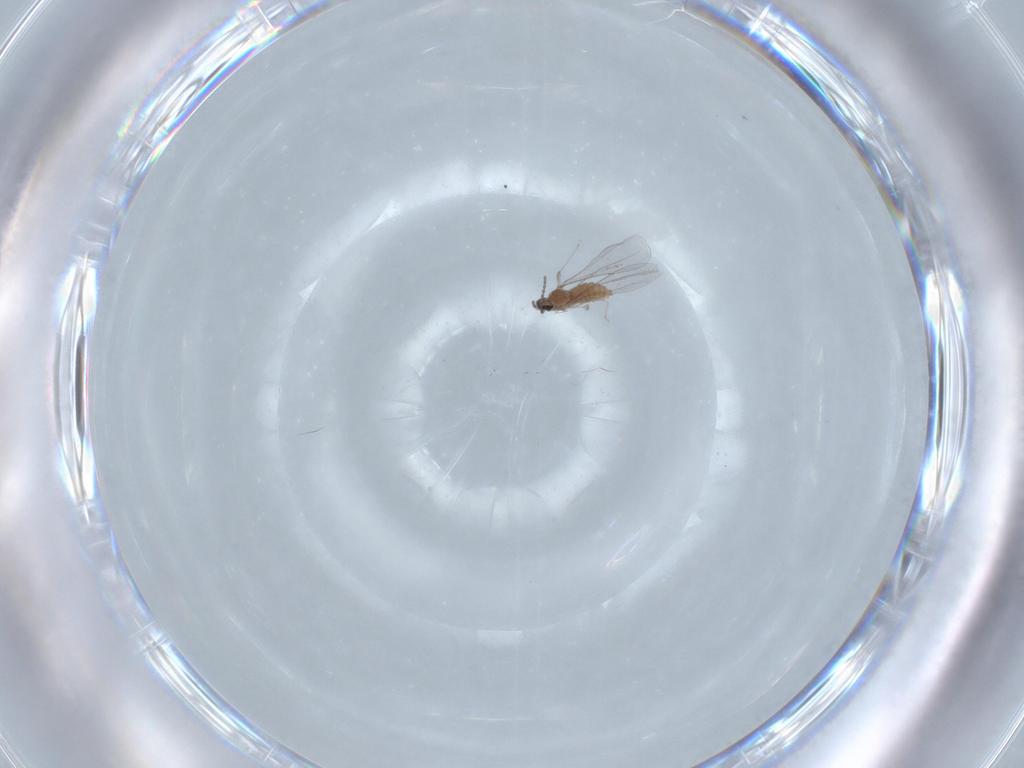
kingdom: Animalia
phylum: Arthropoda
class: Insecta
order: Diptera
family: Cecidomyiidae
